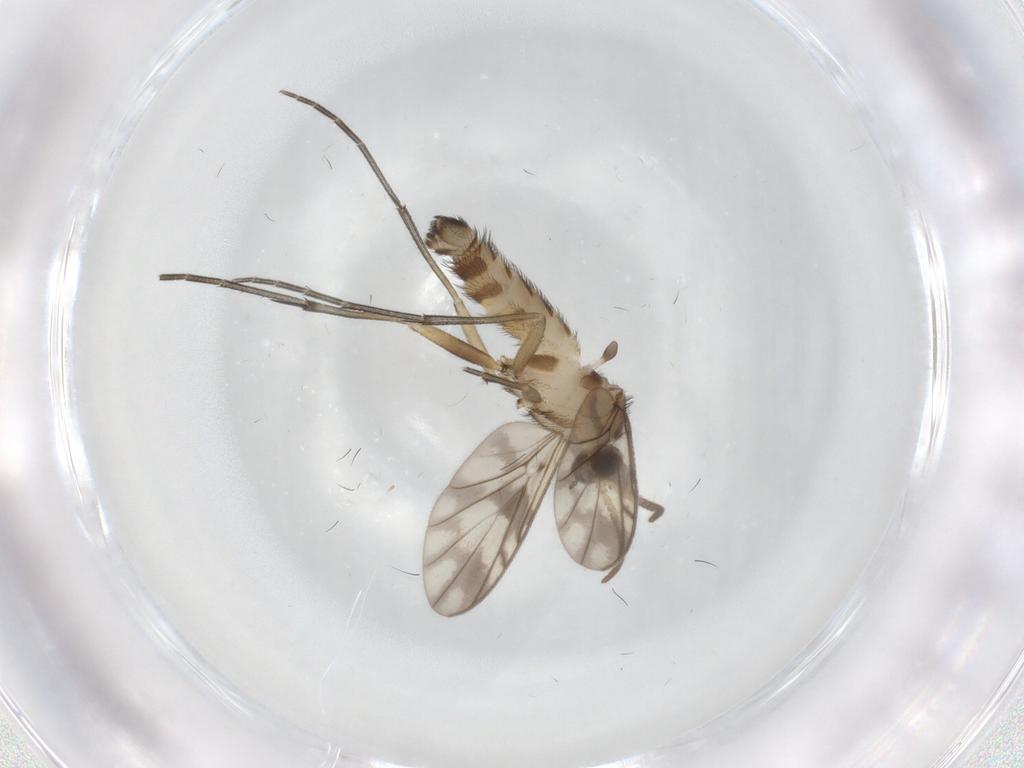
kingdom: Animalia
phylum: Arthropoda
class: Insecta
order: Diptera
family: Keroplatidae
